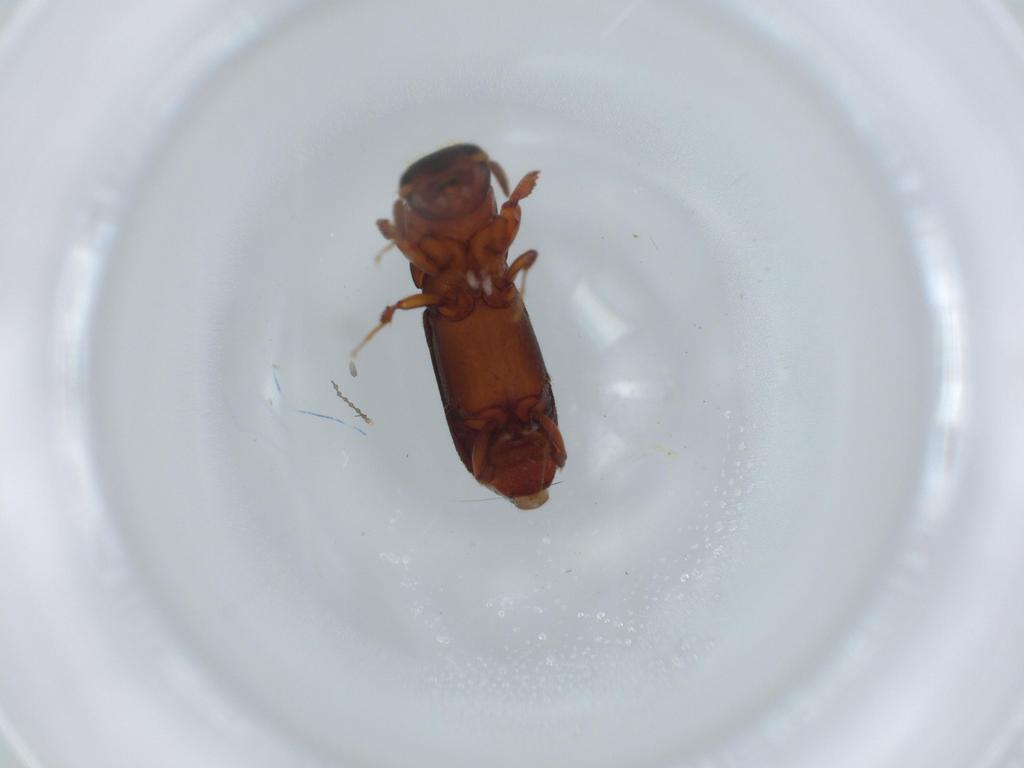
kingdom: Animalia
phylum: Arthropoda
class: Insecta
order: Coleoptera
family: Curculionidae
